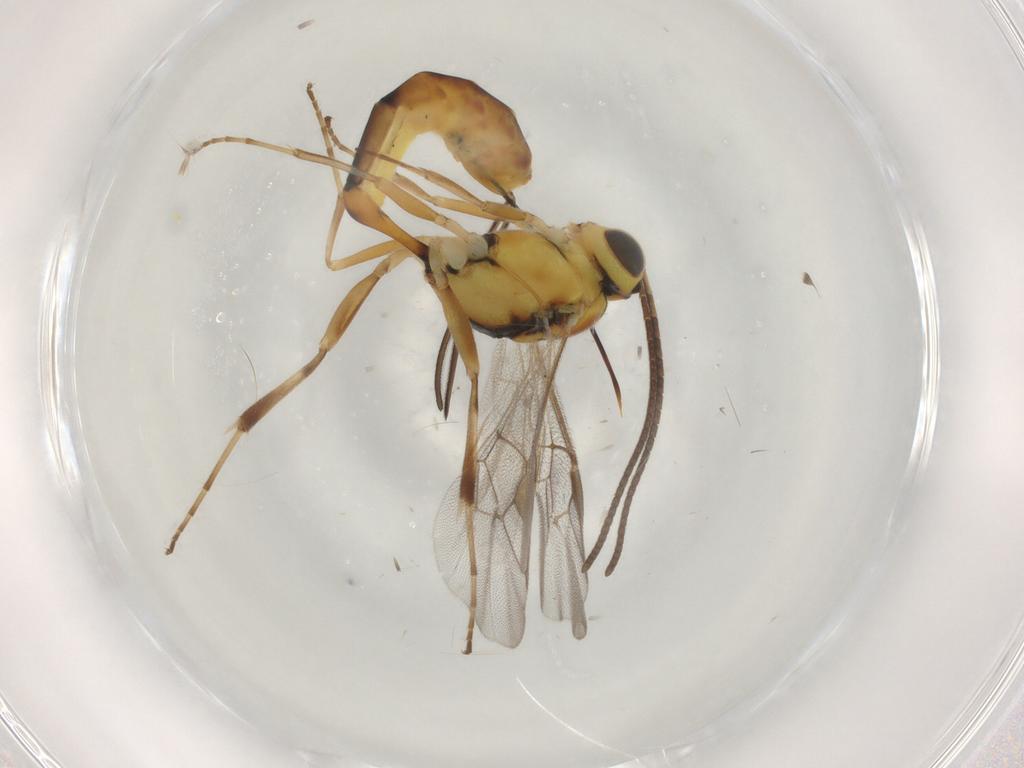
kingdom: Animalia
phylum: Arthropoda
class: Insecta
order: Hymenoptera
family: Ichneumonidae
